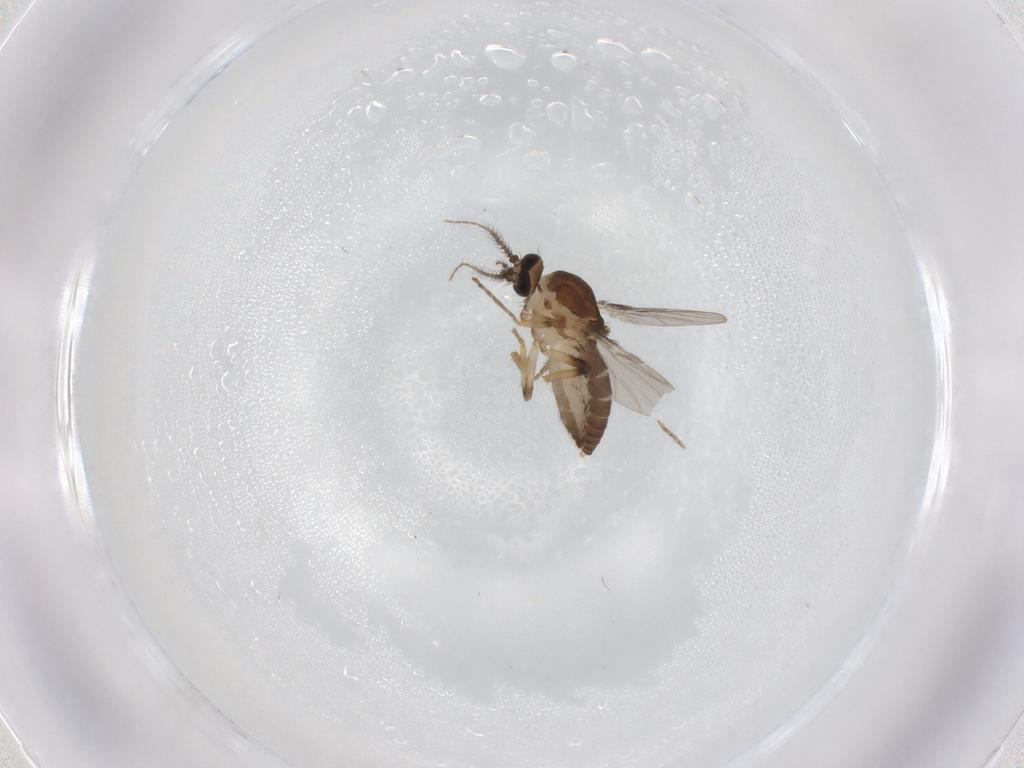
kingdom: Animalia
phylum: Arthropoda
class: Insecta
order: Diptera
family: Ceratopogonidae
